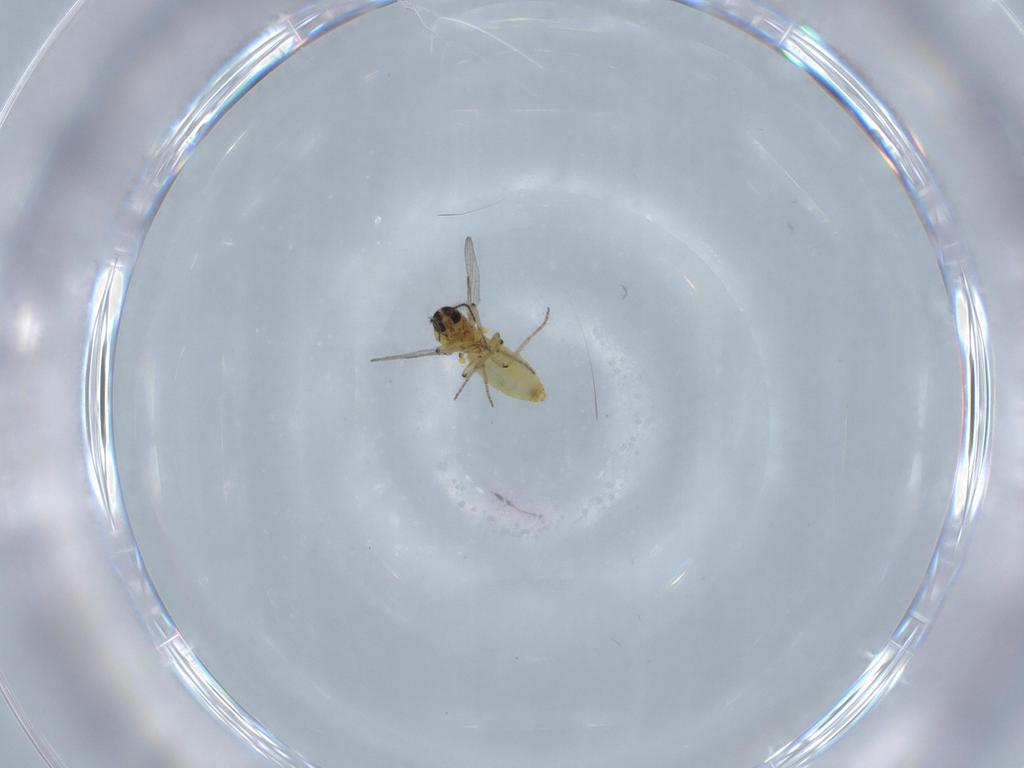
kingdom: Animalia
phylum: Arthropoda
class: Insecta
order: Diptera
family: Ceratopogonidae
